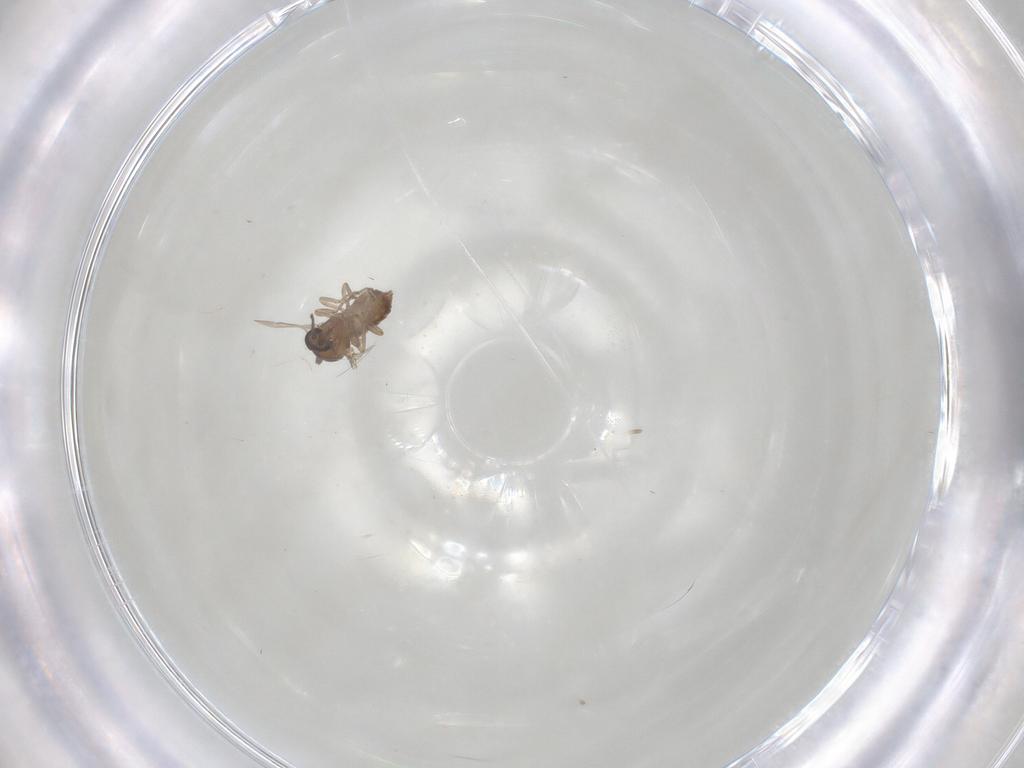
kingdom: Animalia
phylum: Arthropoda
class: Insecta
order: Diptera
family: Ceratopogonidae
